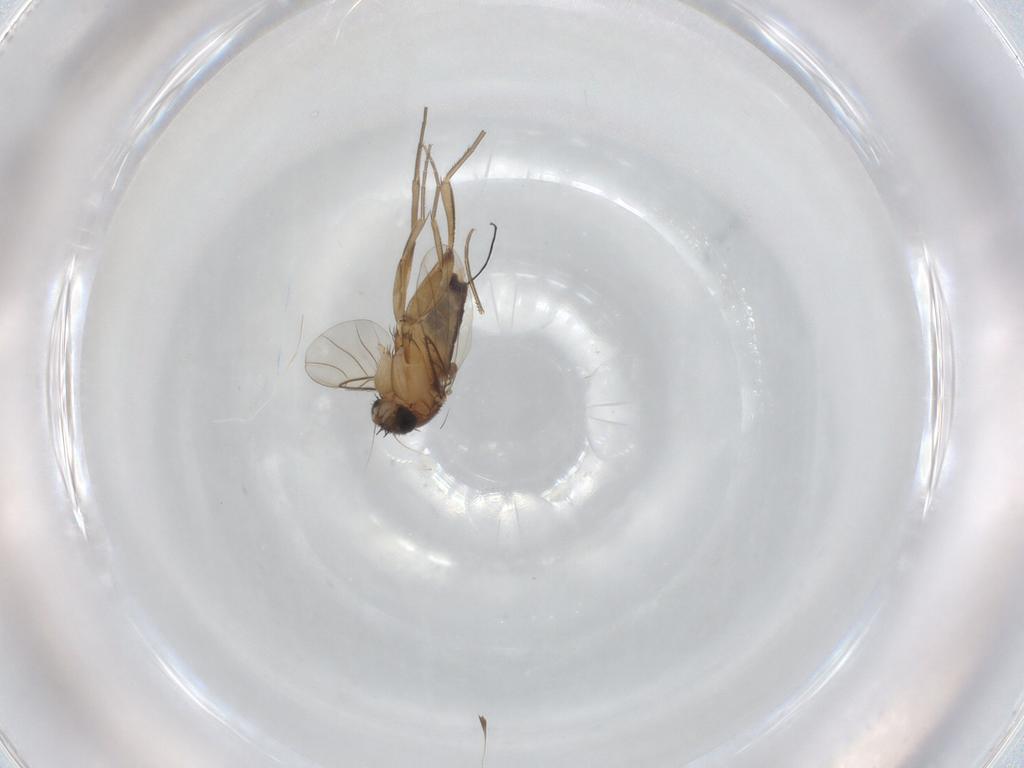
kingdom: Animalia
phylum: Arthropoda
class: Insecta
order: Diptera
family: Phoridae
